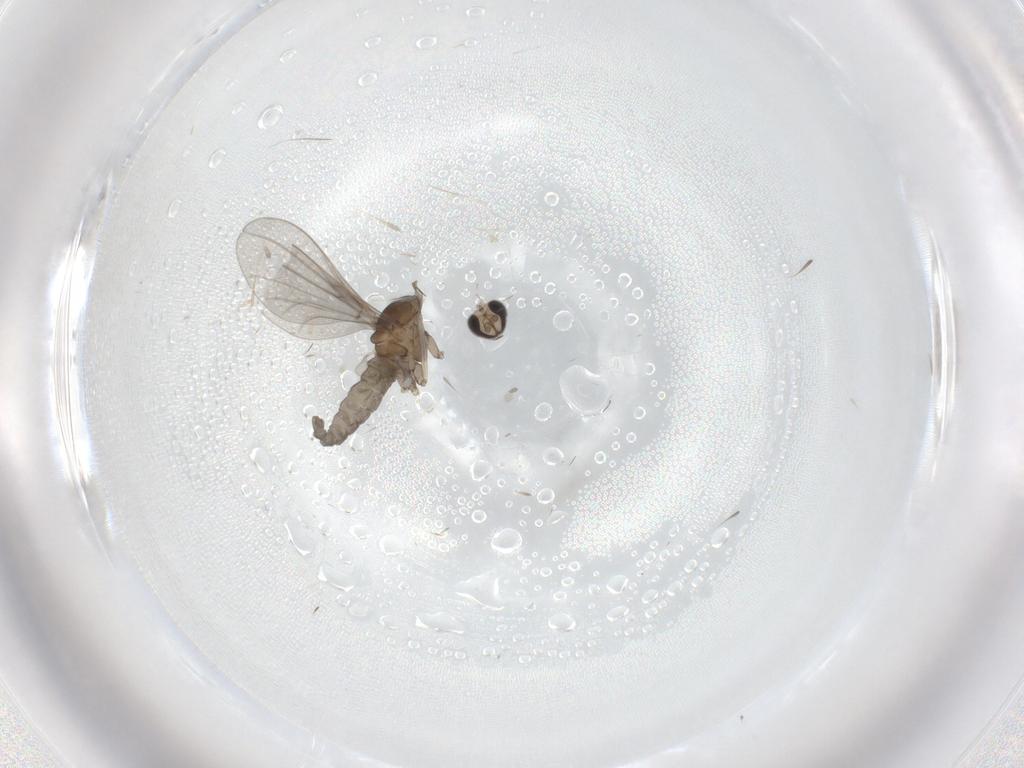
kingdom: Animalia
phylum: Arthropoda
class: Insecta
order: Diptera
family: Cecidomyiidae
